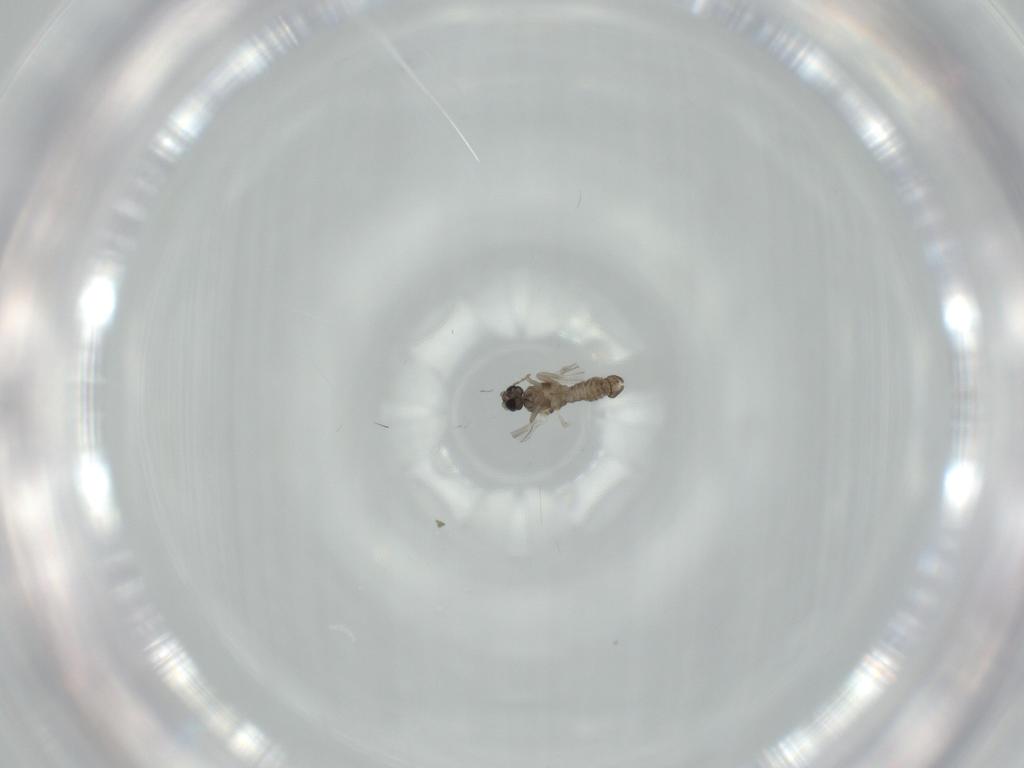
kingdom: Animalia
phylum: Arthropoda
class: Insecta
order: Diptera
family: Cecidomyiidae
